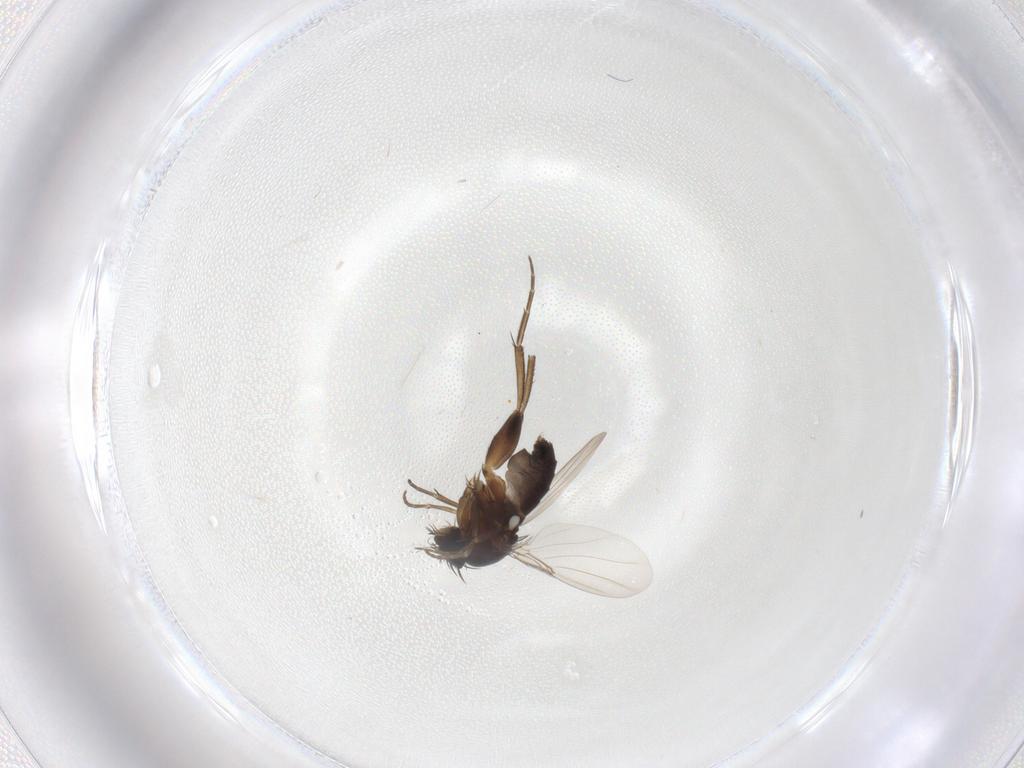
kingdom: Animalia
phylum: Arthropoda
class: Insecta
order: Diptera
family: Phoridae
